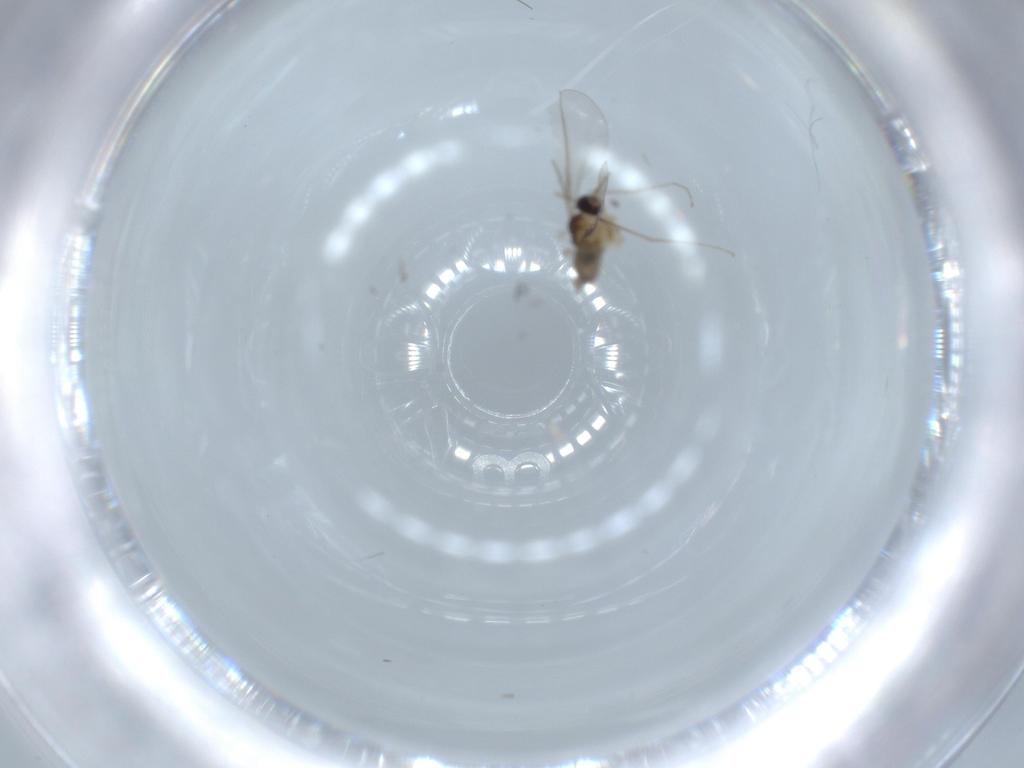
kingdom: Animalia
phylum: Arthropoda
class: Insecta
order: Diptera
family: Cecidomyiidae
